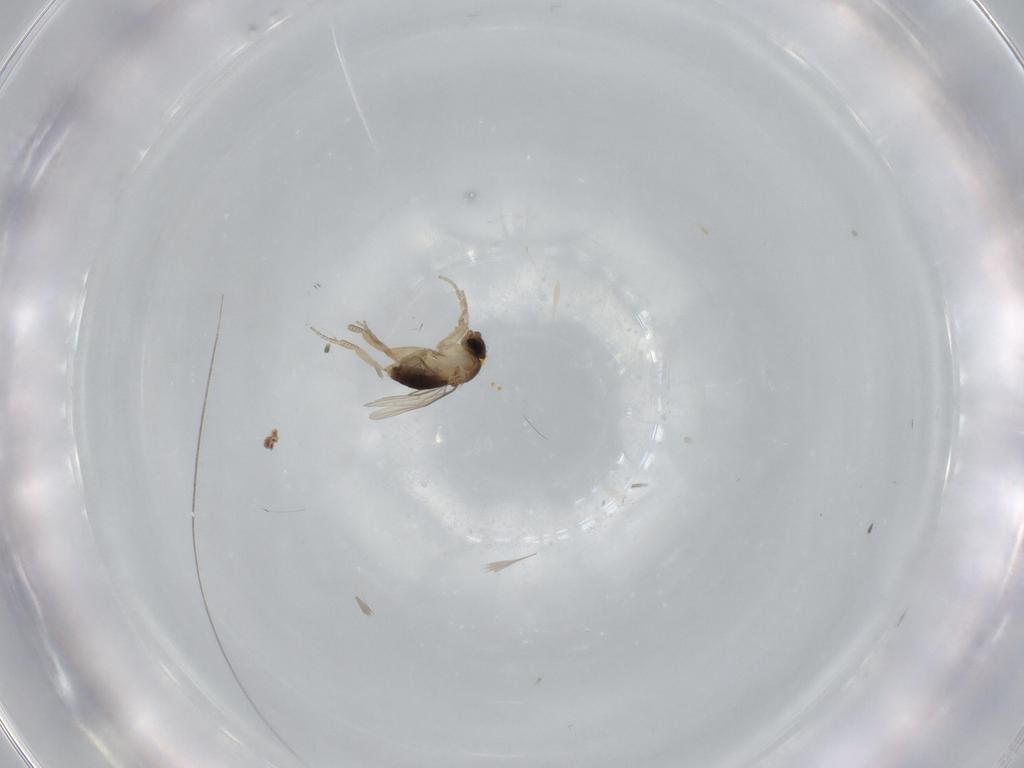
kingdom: Animalia
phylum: Arthropoda
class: Insecta
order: Diptera
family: Phoridae
